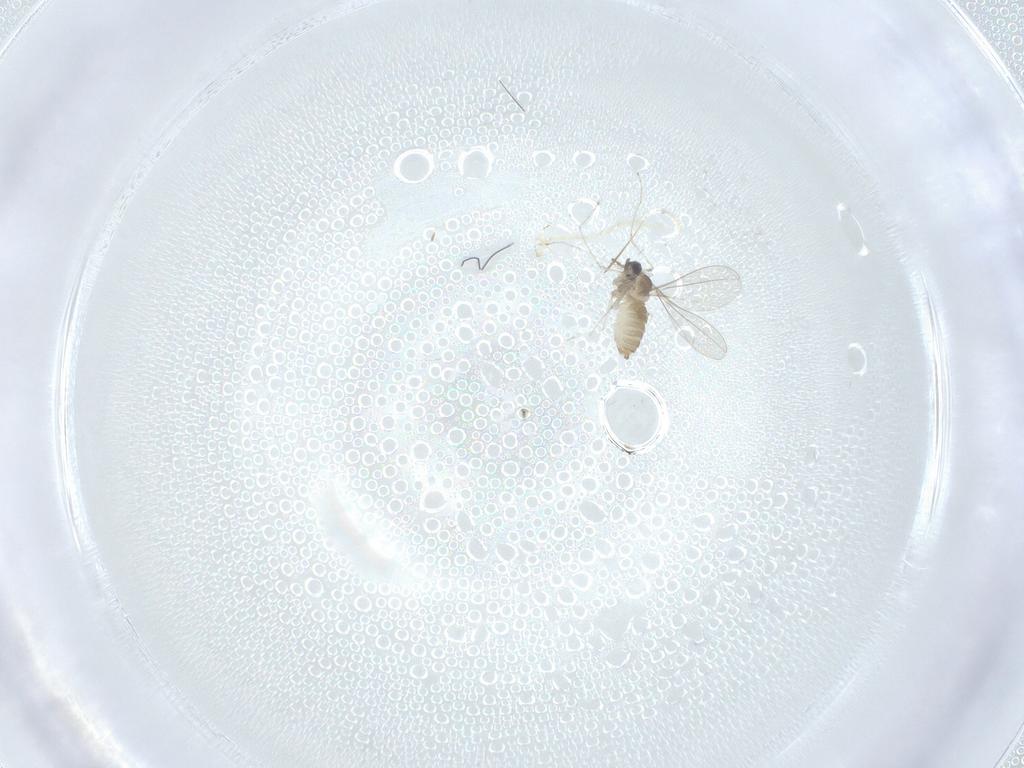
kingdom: Animalia
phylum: Arthropoda
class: Insecta
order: Diptera
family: Cecidomyiidae
